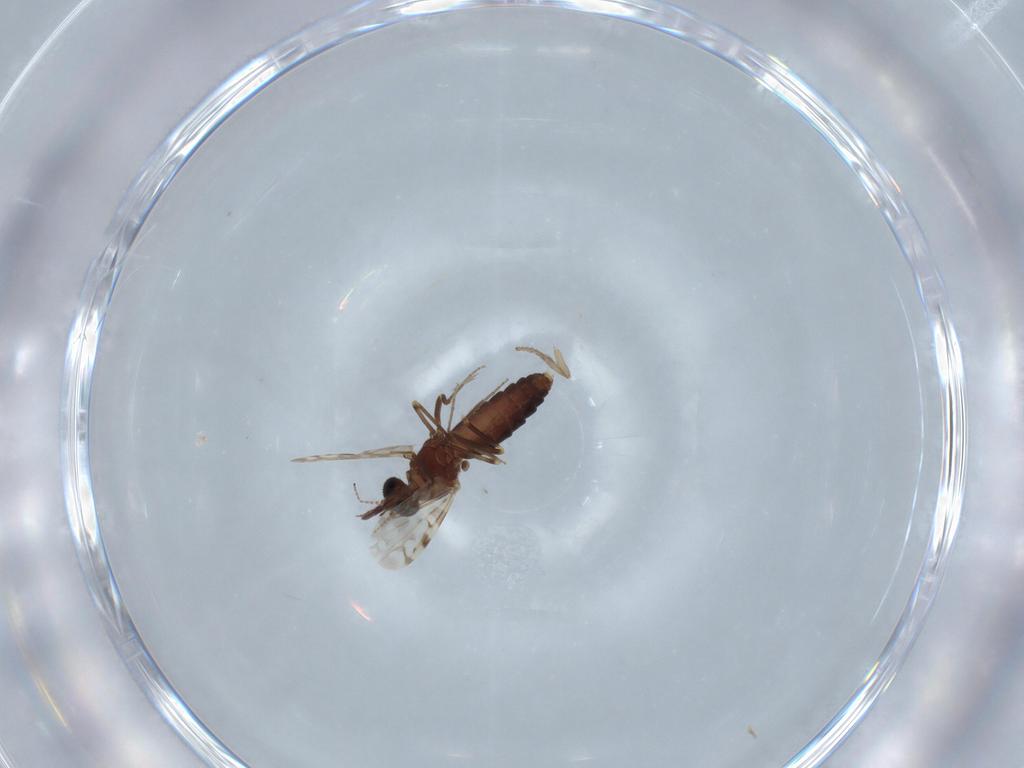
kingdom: Animalia
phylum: Arthropoda
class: Insecta
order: Diptera
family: Cecidomyiidae
